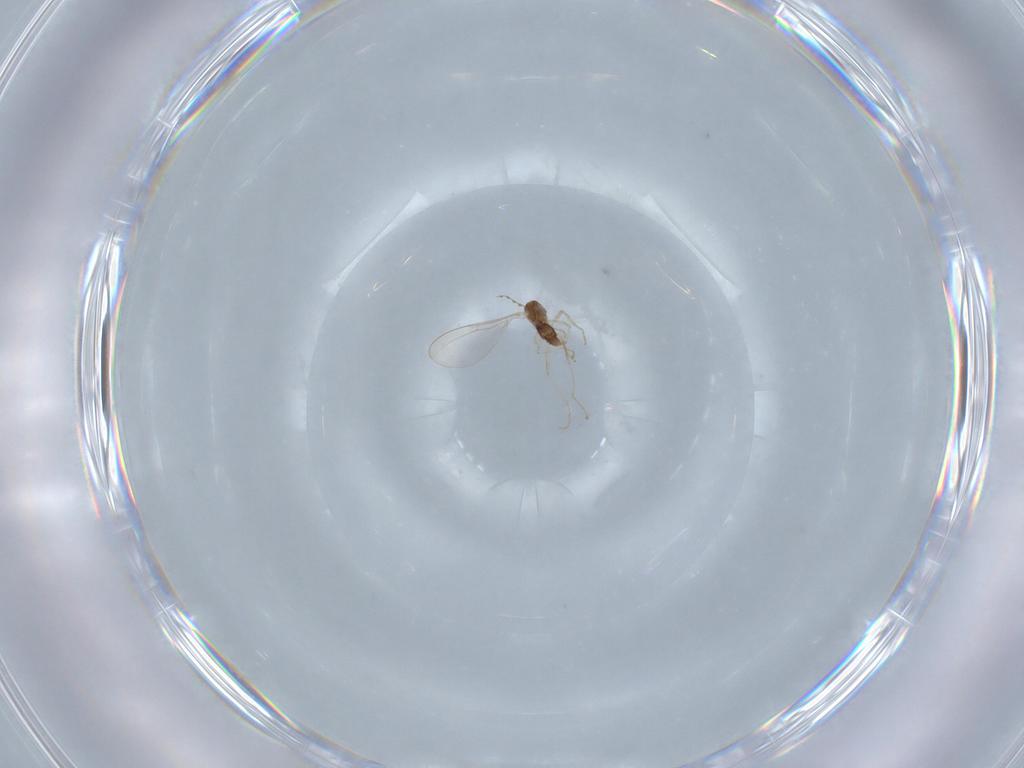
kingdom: Animalia
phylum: Arthropoda
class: Insecta
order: Diptera
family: Cecidomyiidae
